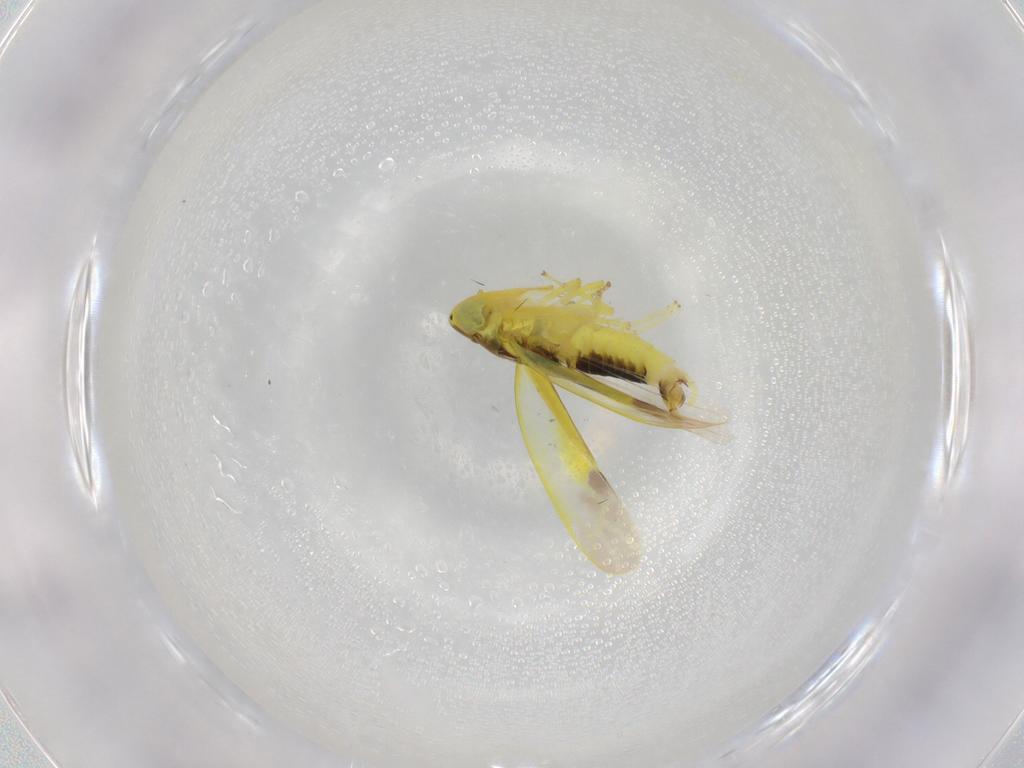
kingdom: Animalia
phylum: Arthropoda
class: Insecta
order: Hemiptera
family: Cicadellidae
